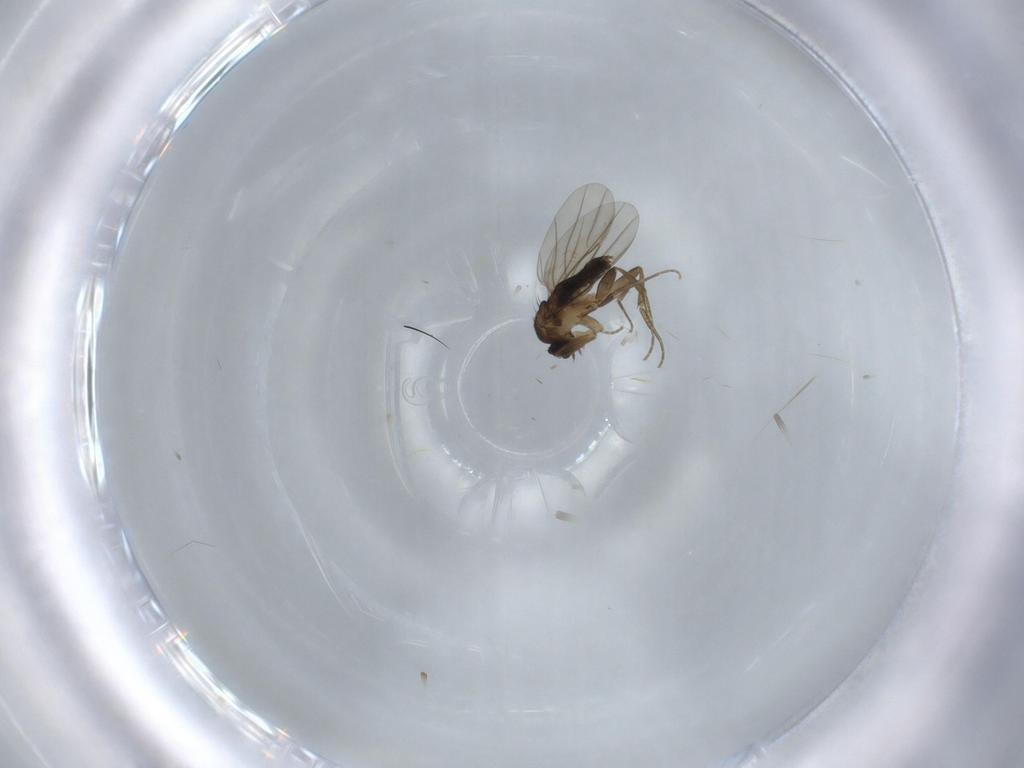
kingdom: Animalia
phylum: Arthropoda
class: Insecta
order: Diptera
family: Phoridae
